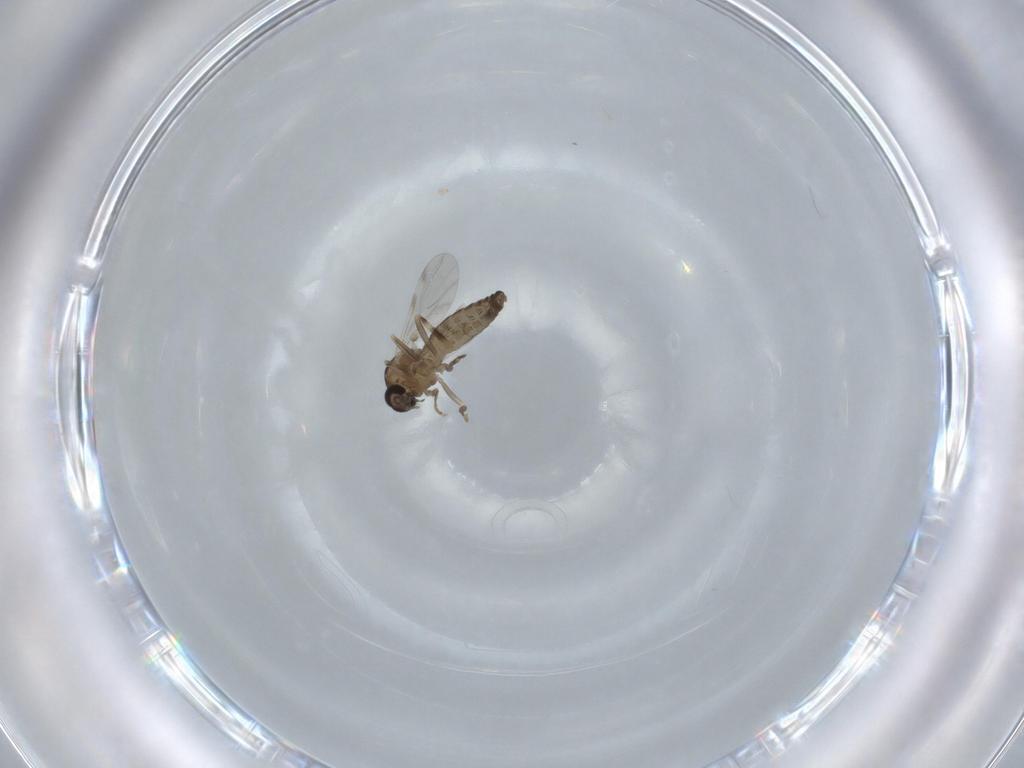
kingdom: Animalia
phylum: Arthropoda
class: Insecta
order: Diptera
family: Ceratopogonidae
